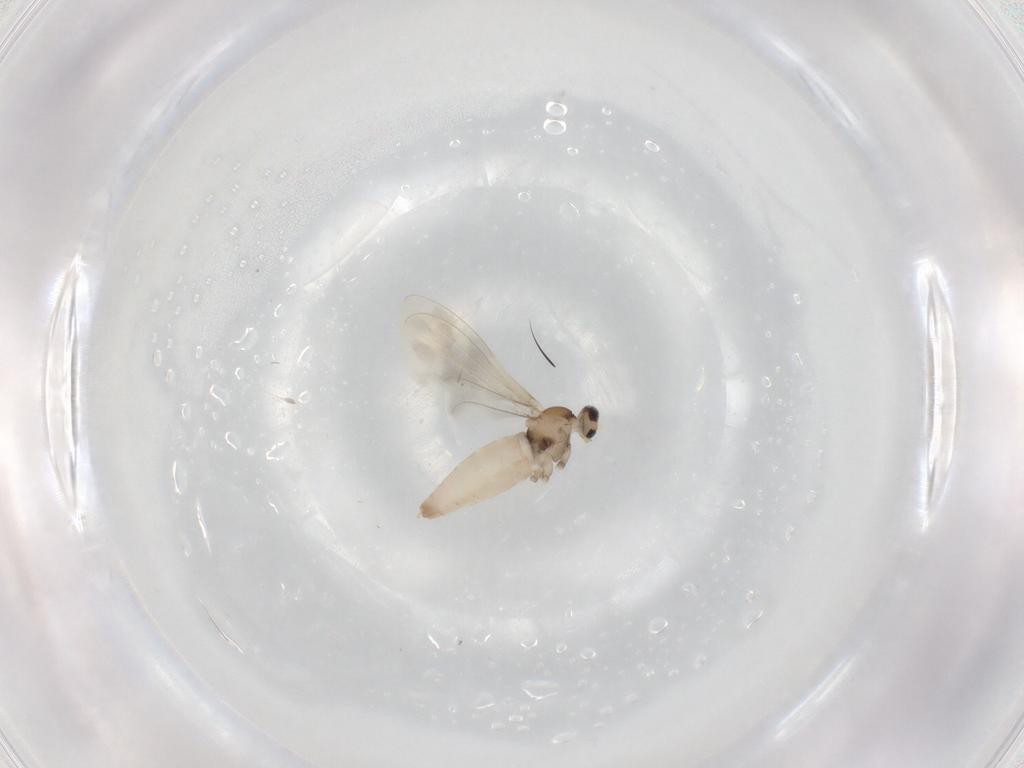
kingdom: Animalia
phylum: Arthropoda
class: Insecta
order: Diptera
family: Cecidomyiidae
